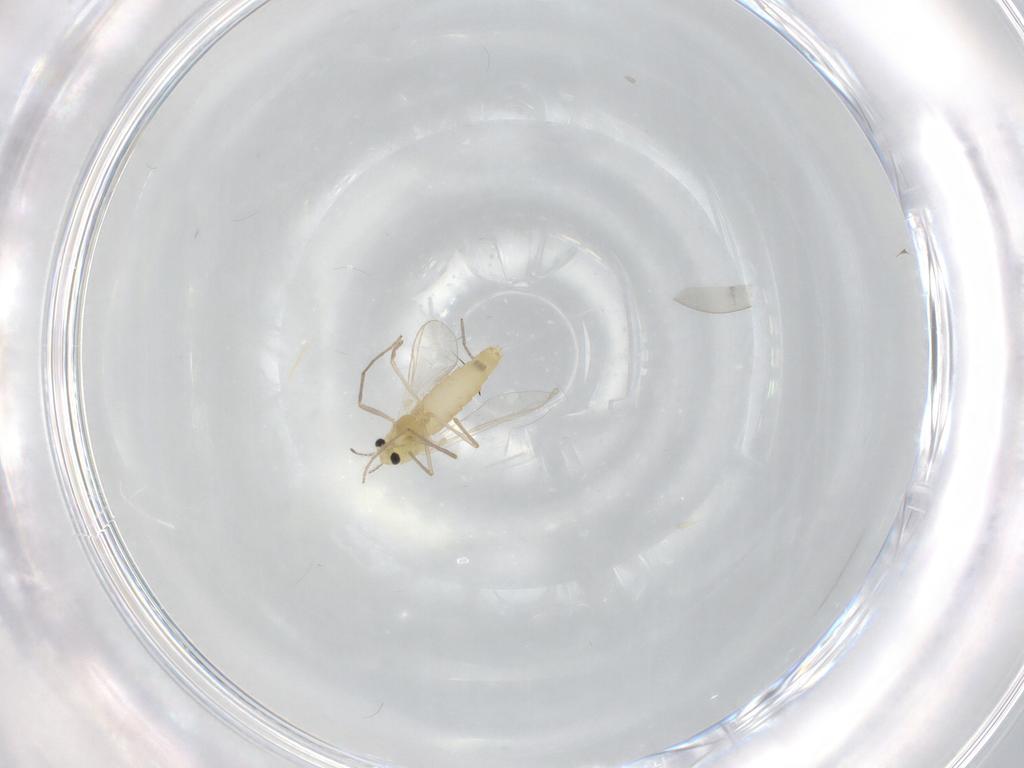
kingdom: Animalia
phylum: Arthropoda
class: Insecta
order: Diptera
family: Chironomidae
